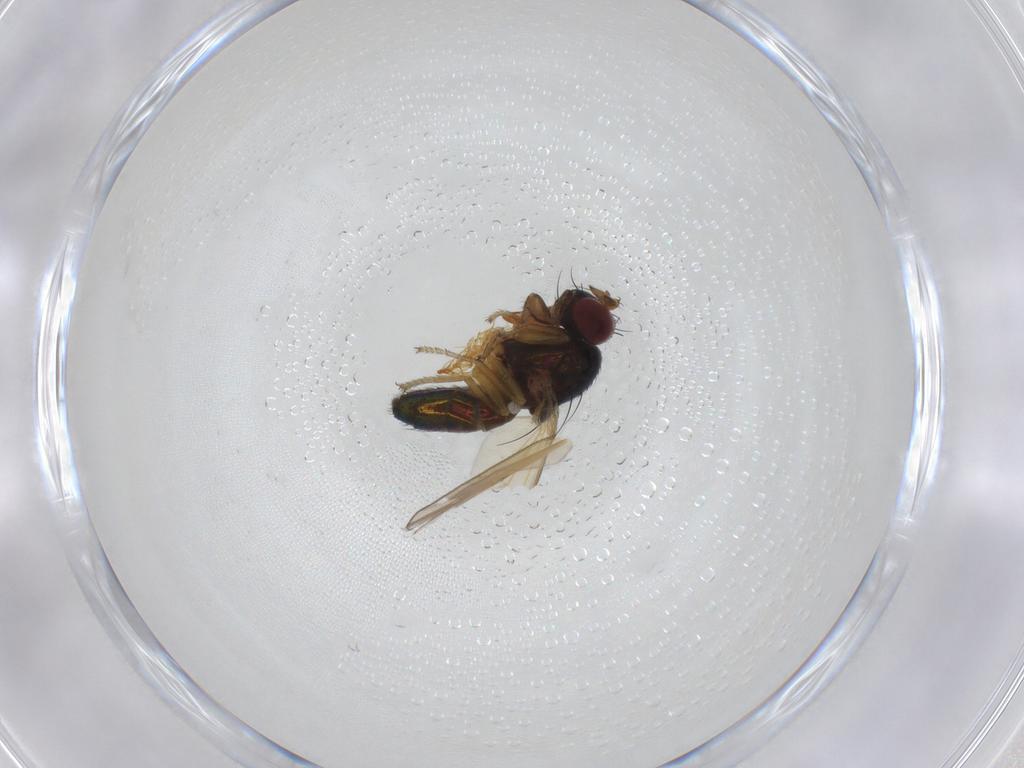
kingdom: Animalia
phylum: Arthropoda
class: Insecta
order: Diptera
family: Ephydridae
